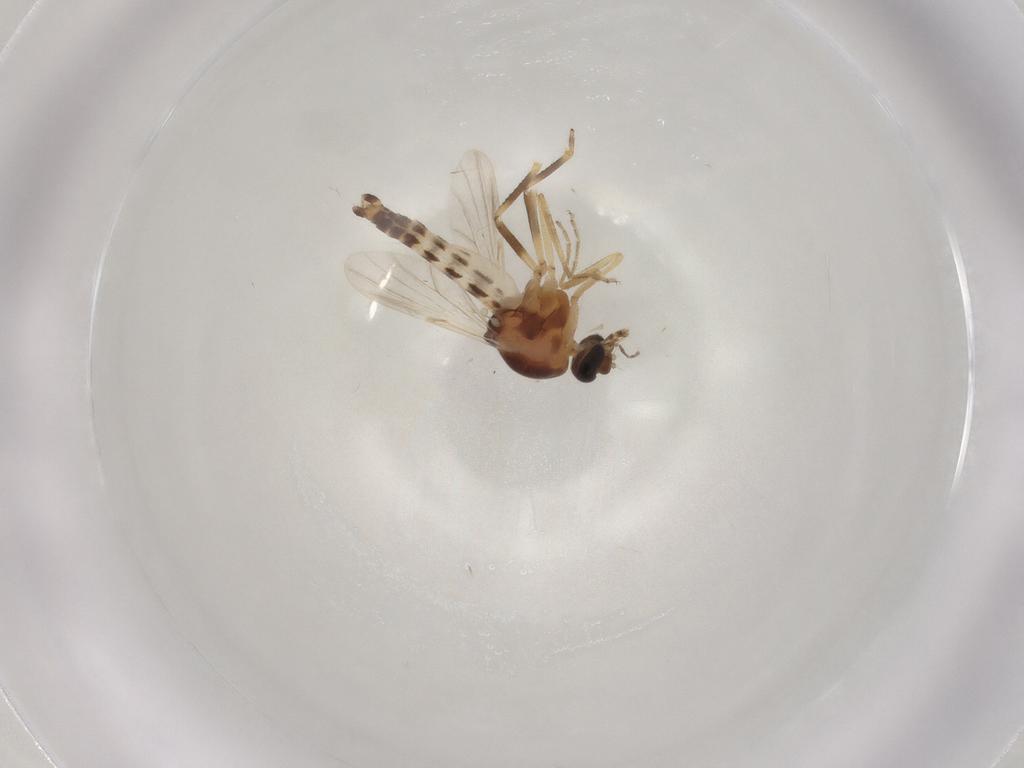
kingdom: Animalia
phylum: Arthropoda
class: Insecta
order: Diptera
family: Ceratopogonidae
